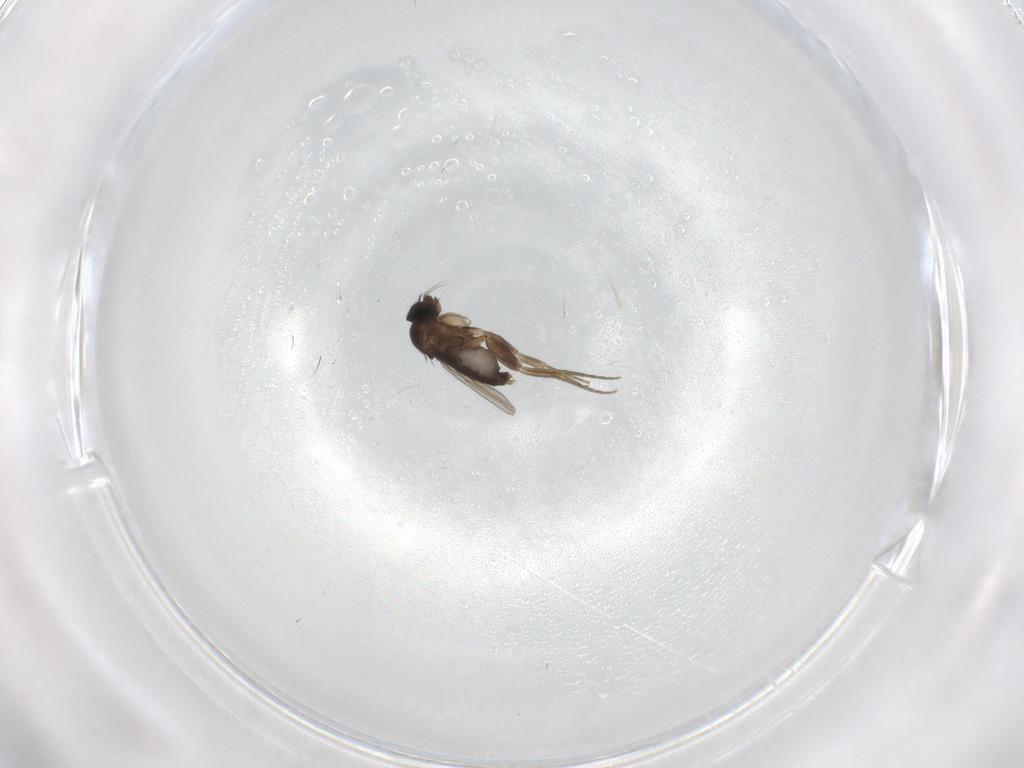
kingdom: Animalia
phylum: Arthropoda
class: Insecta
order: Diptera
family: Phoridae
